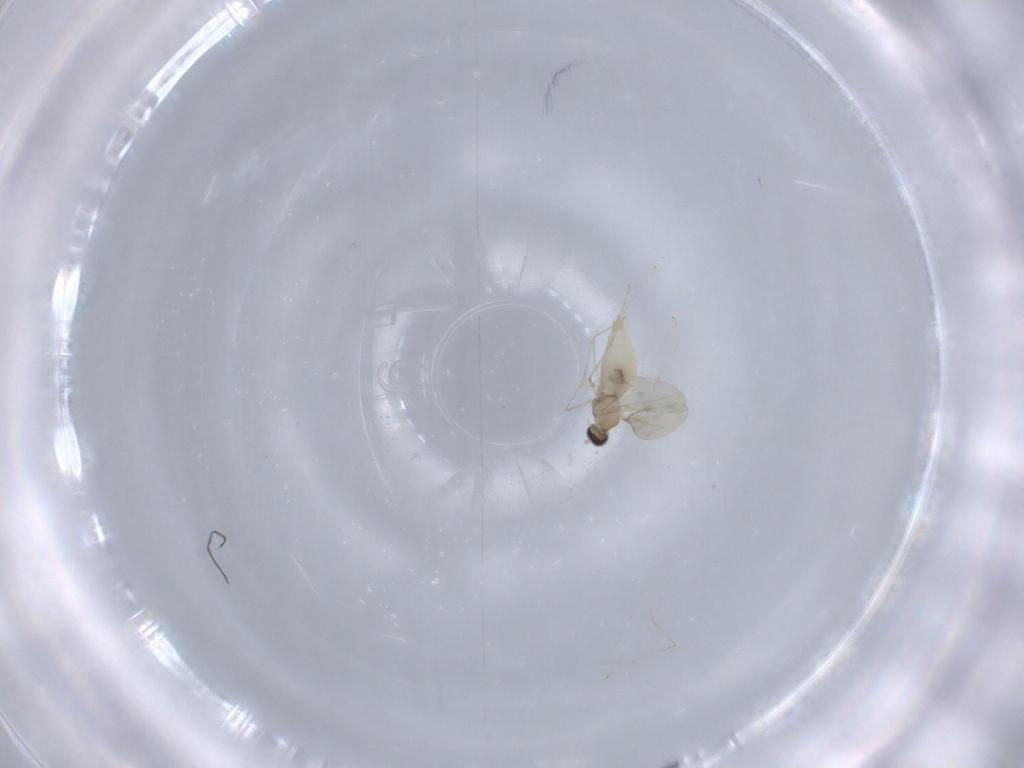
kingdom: Animalia
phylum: Arthropoda
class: Insecta
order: Diptera
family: Cecidomyiidae
